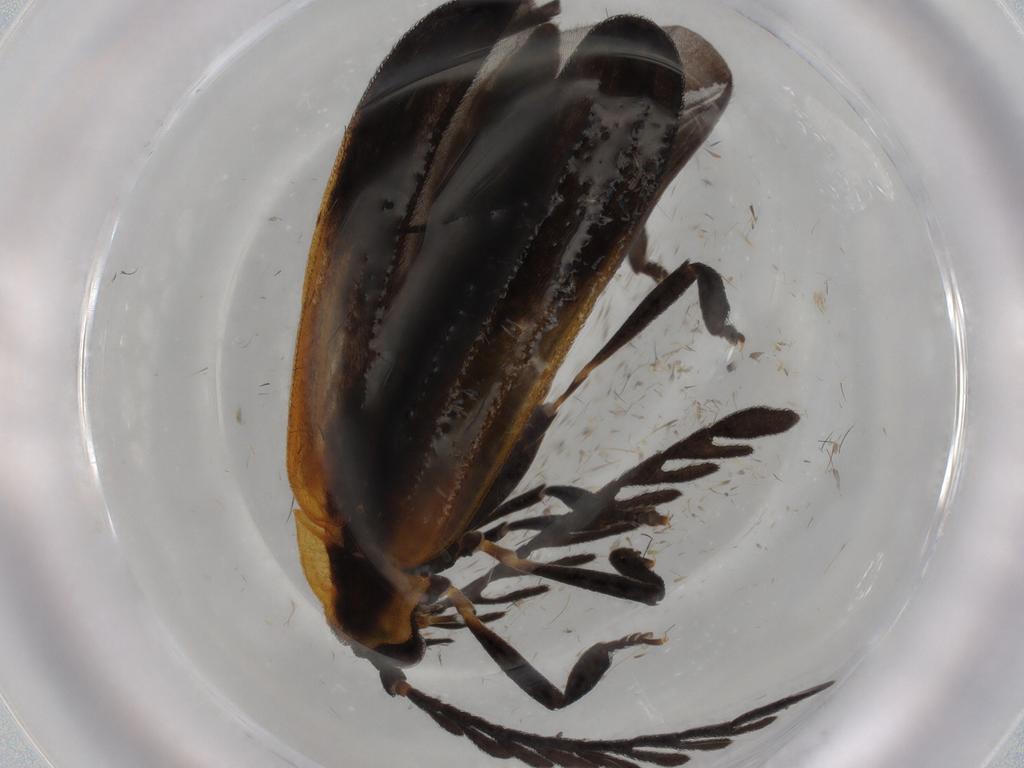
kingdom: Animalia
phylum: Arthropoda
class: Insecta
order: Coleoptera
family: Lycidae
